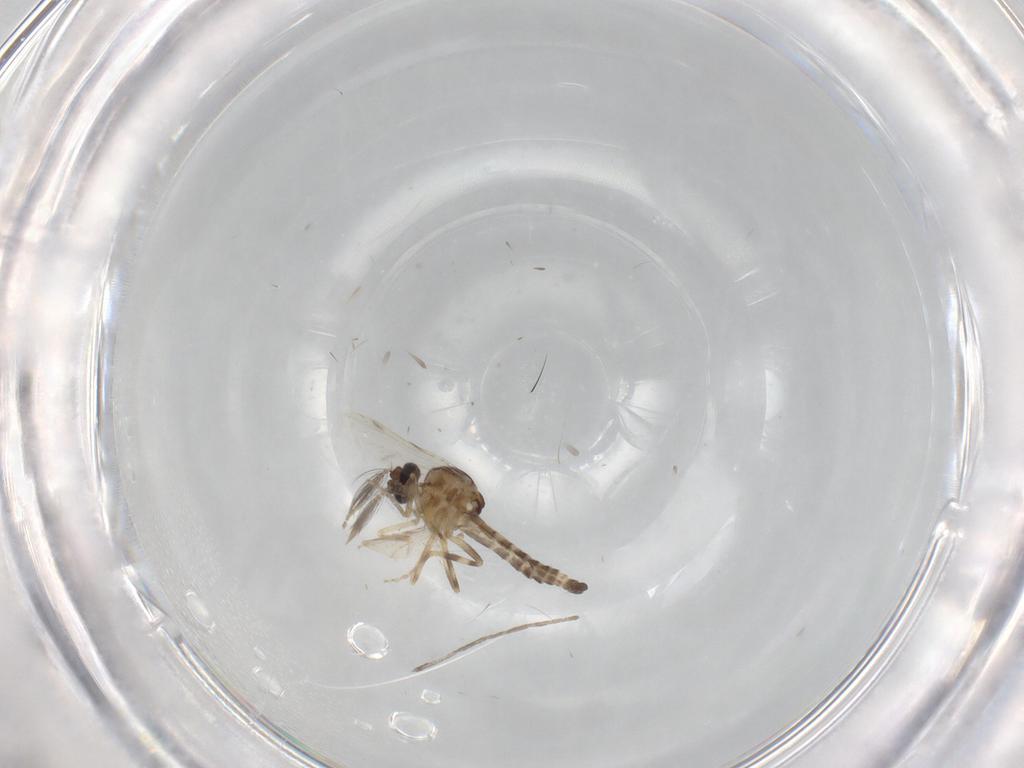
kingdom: Animalia
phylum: Arthropoda
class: Insecta
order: Diptera
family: Ceratopogonidae
